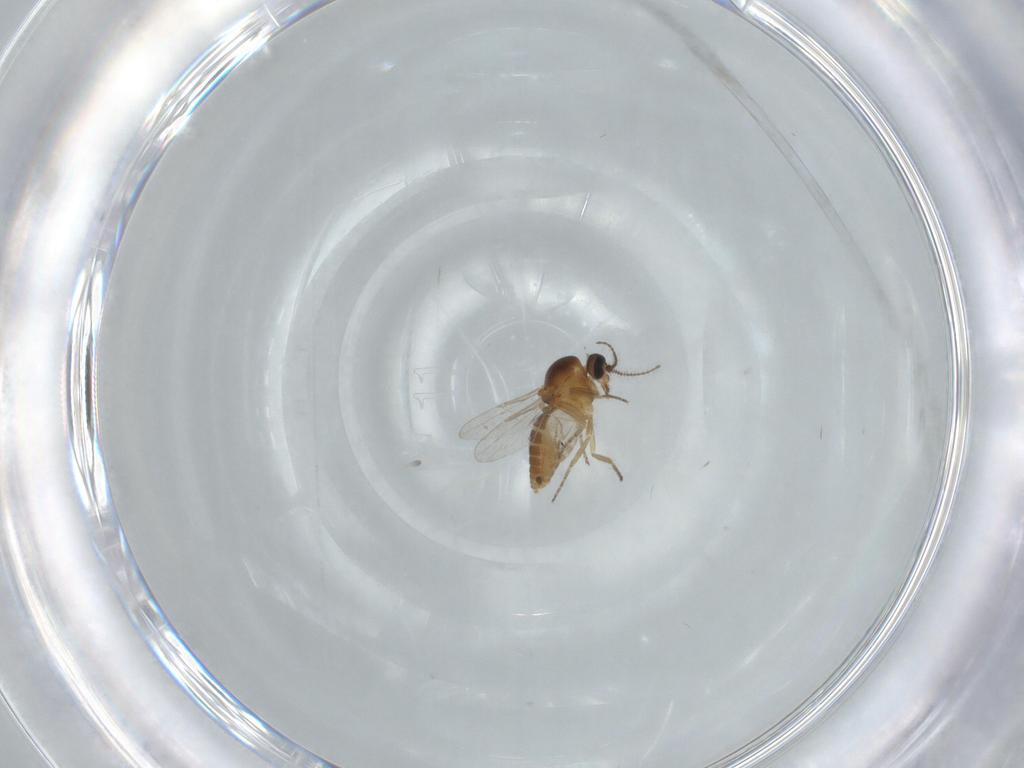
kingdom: Animalia
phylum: Arthropoda
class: Insecta
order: Diptera
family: Ceratopogonidae
